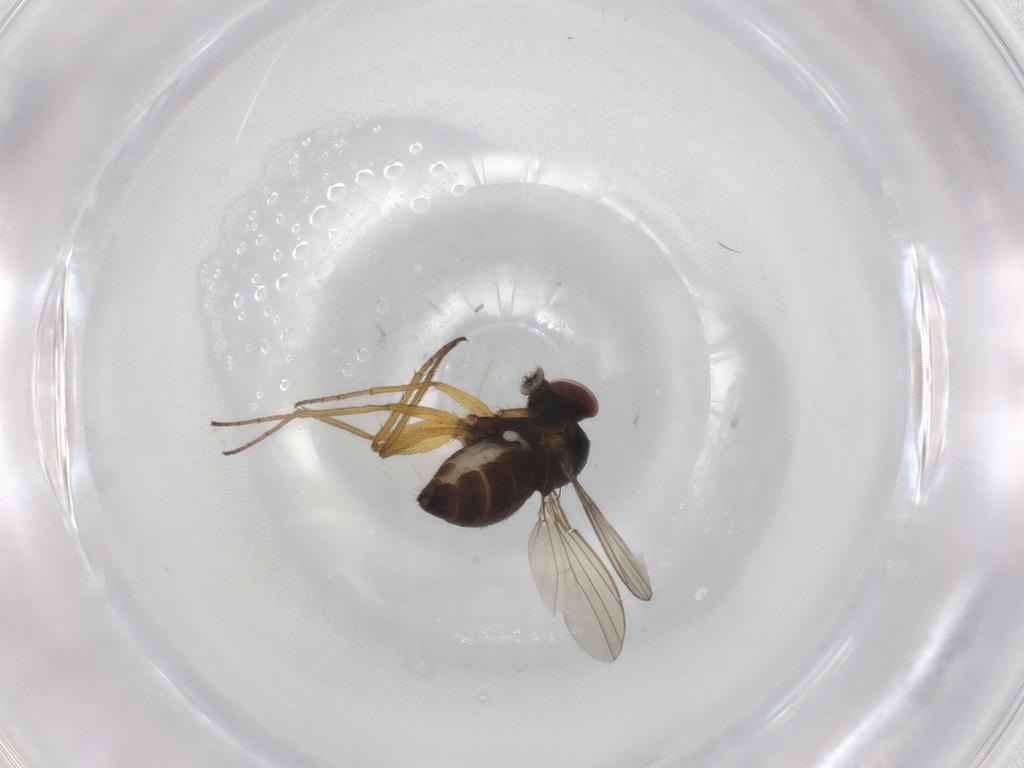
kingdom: Animalia
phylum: Arthropoda
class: Insecta
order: Diptera
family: Dolichopodidae
